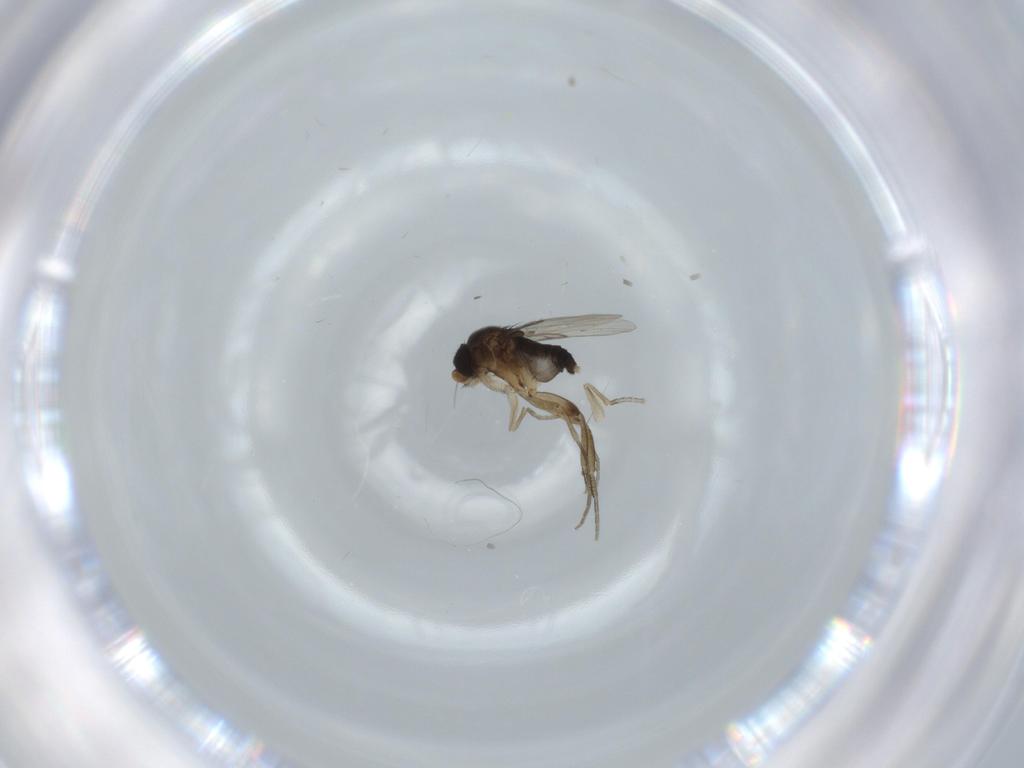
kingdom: Animalia
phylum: Arthropoda
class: Insecta
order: Diptera
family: Phoridae
